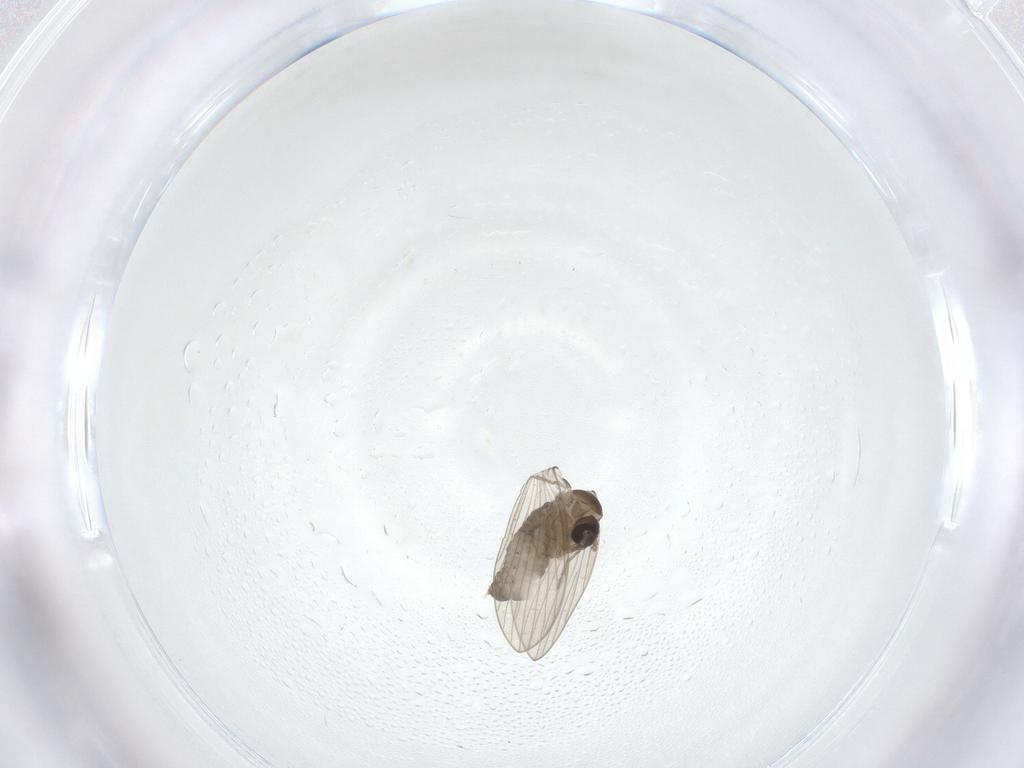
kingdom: Animalia
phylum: Arthropoda
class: Insecta
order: Diptera
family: Psychodidae
